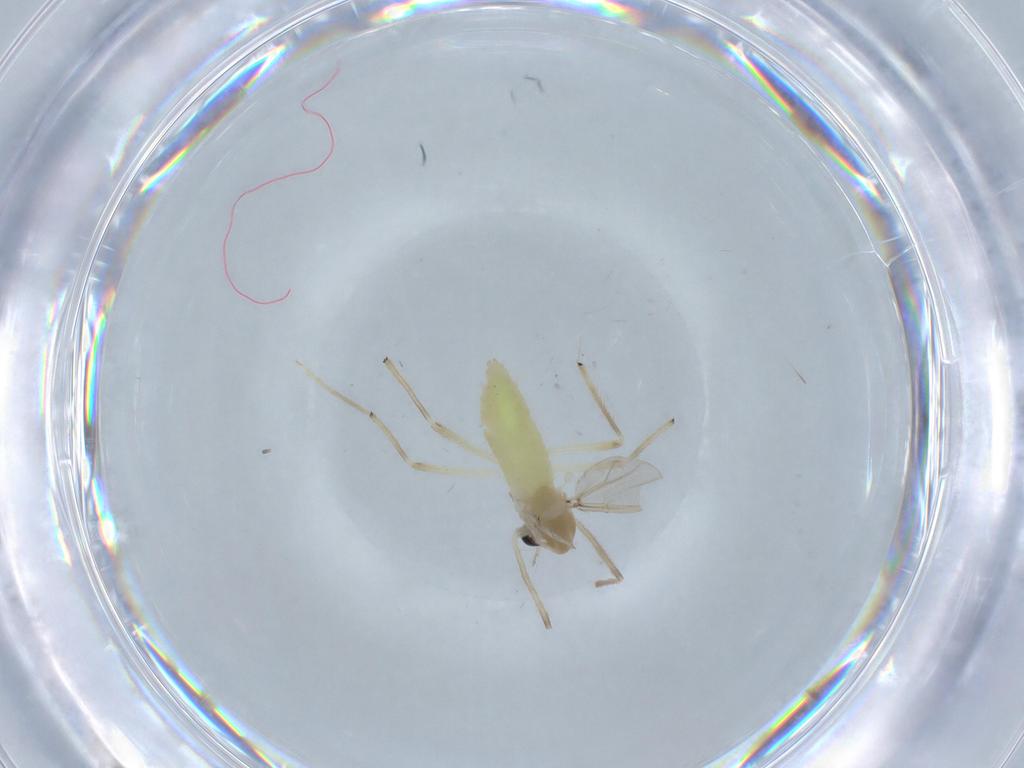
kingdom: Animalia
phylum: Arthropoda
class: Insecta
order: Diptera
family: Chironomidae
